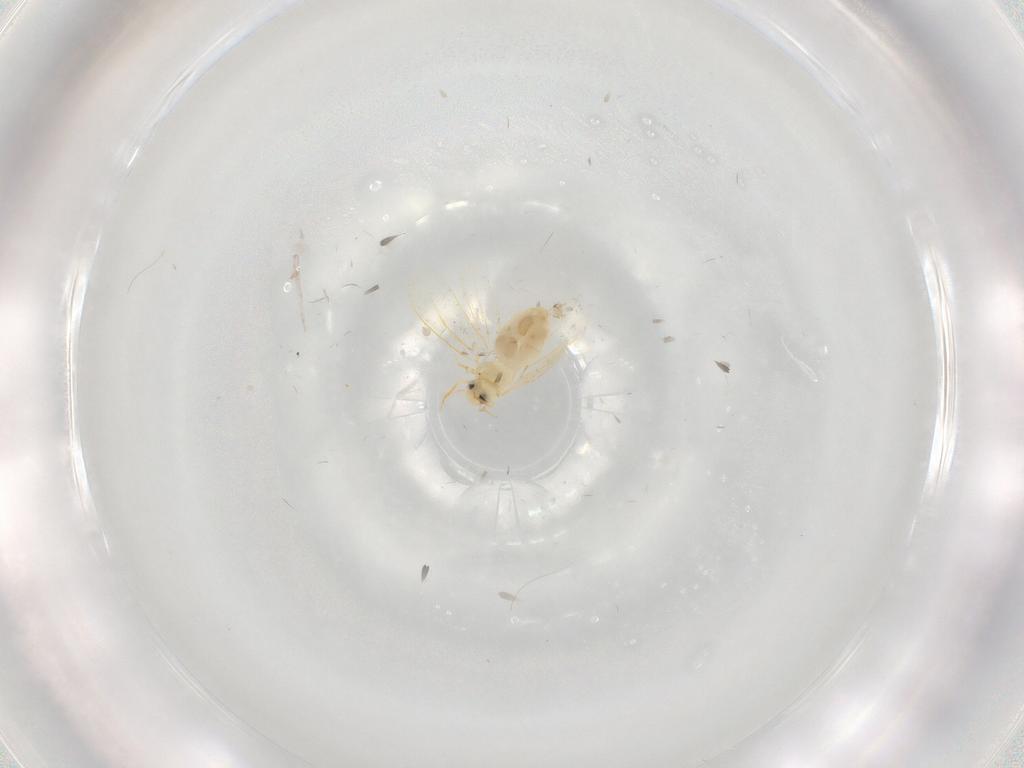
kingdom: Animalia
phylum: Arthropoda
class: Insecta
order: Hemiptera
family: Aleyrodidae
